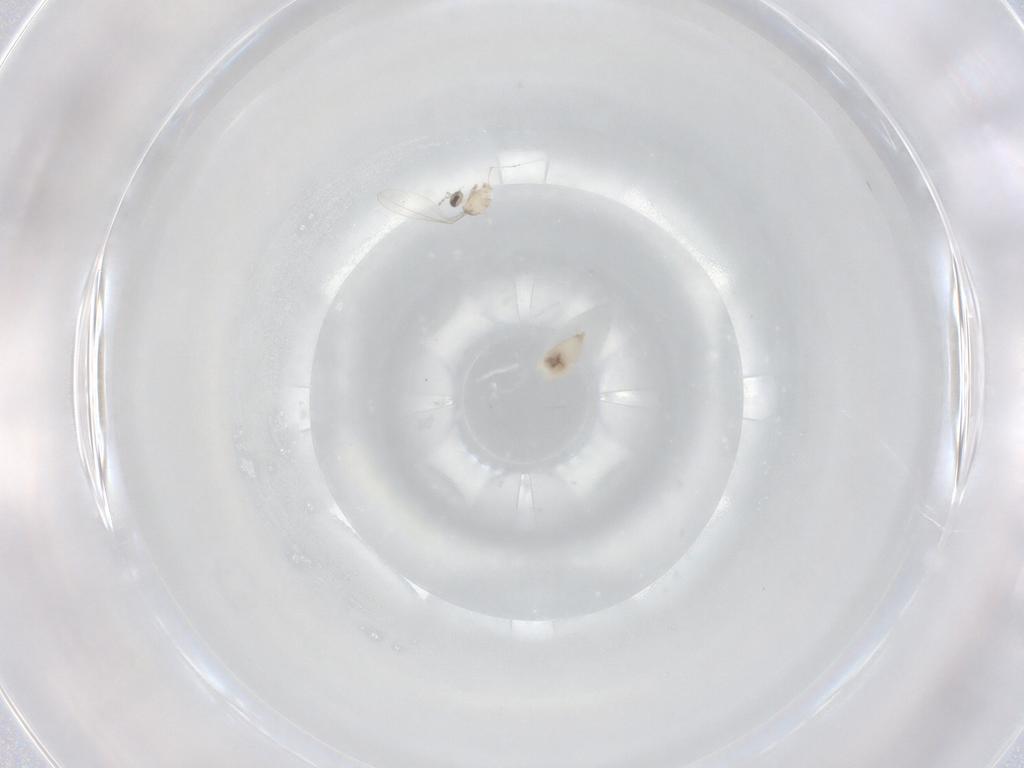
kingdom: Animalia
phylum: Arthropoda
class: Insecta
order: Diptera
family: Cecidomyiidae
